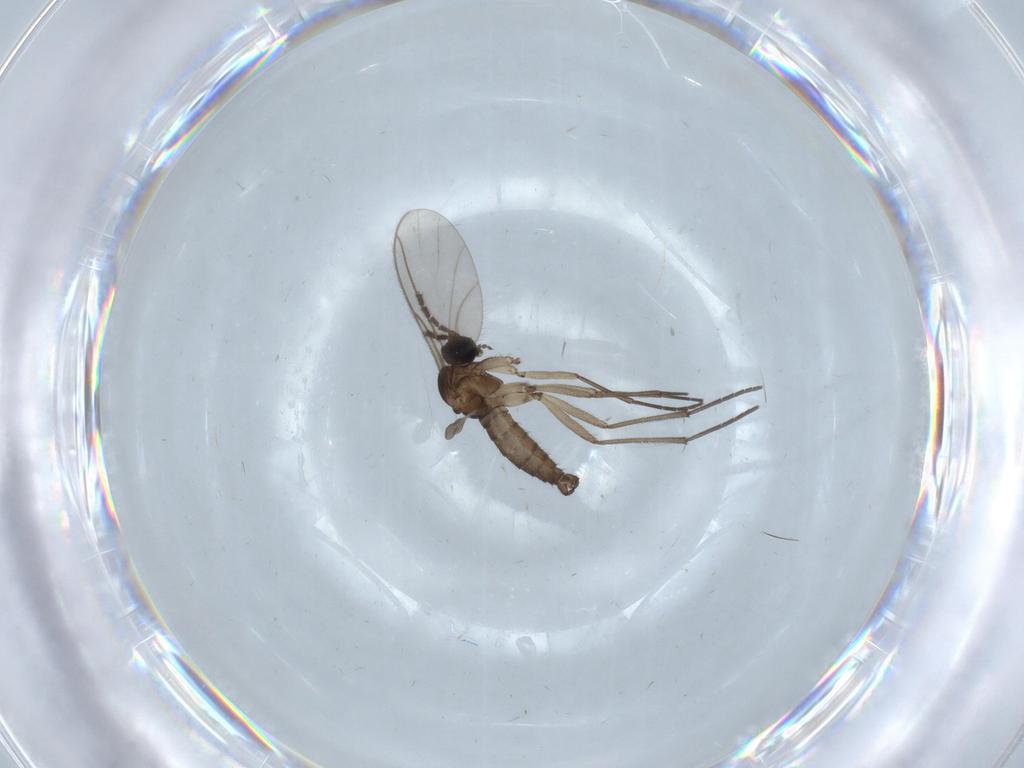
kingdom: Animalia
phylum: Arthropoda
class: Insecta
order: Diptera
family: Sciaridae
